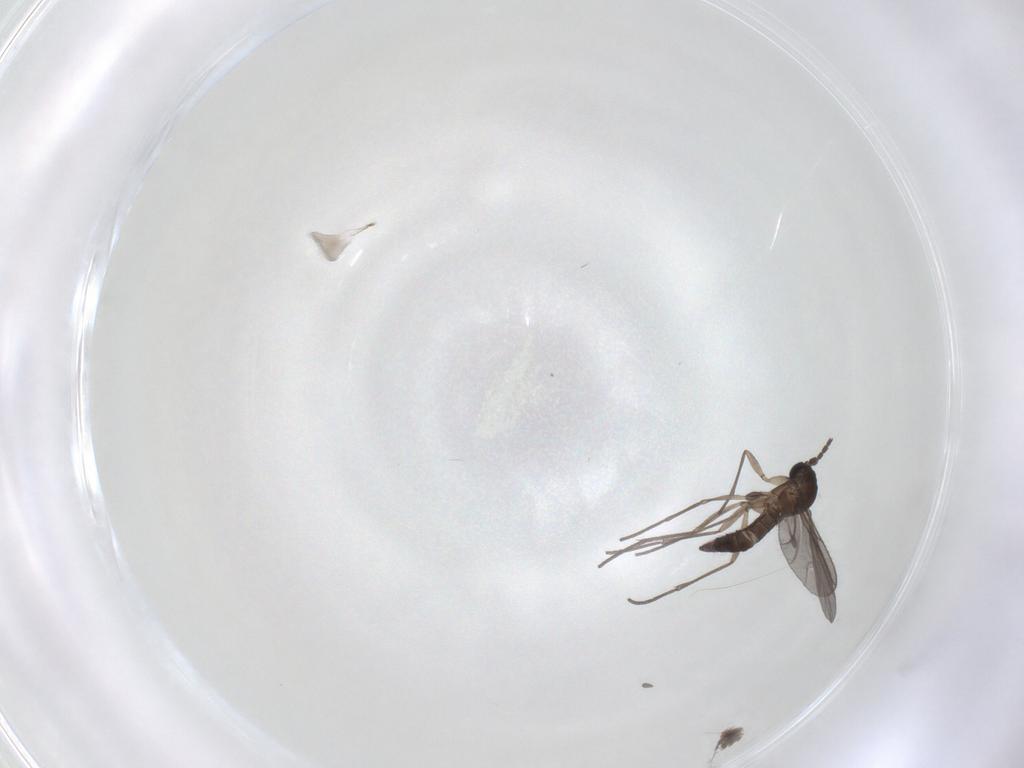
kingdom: Animalia
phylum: Arthropoda
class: Insecta
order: Diptera
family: Sciaridae
